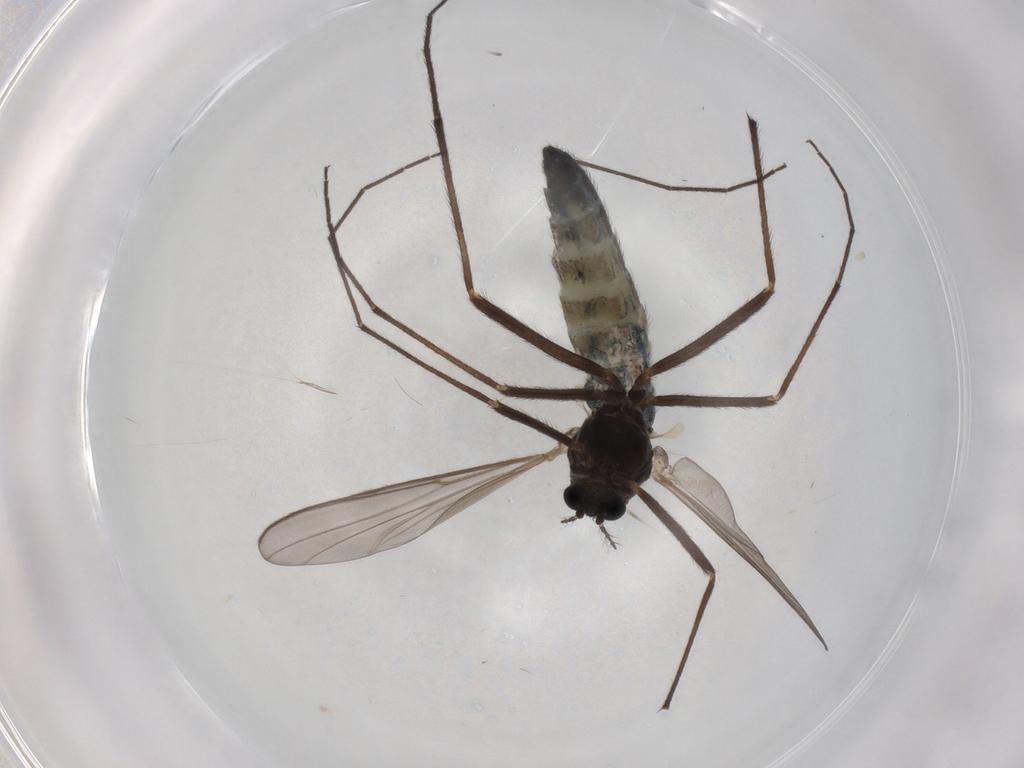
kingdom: Animalia
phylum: Arthropoda
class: Insecta
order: Diptera
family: Chironomidae
